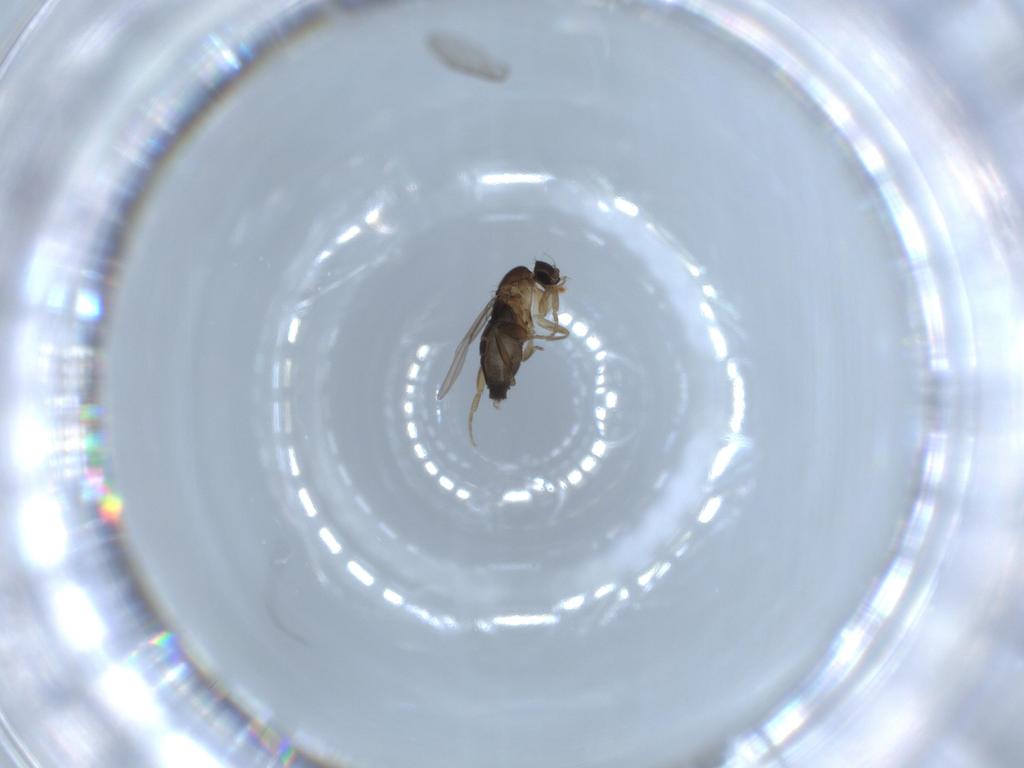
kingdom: Animalia
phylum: Arthropoda
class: Insecta
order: Diptera
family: Phoridae
